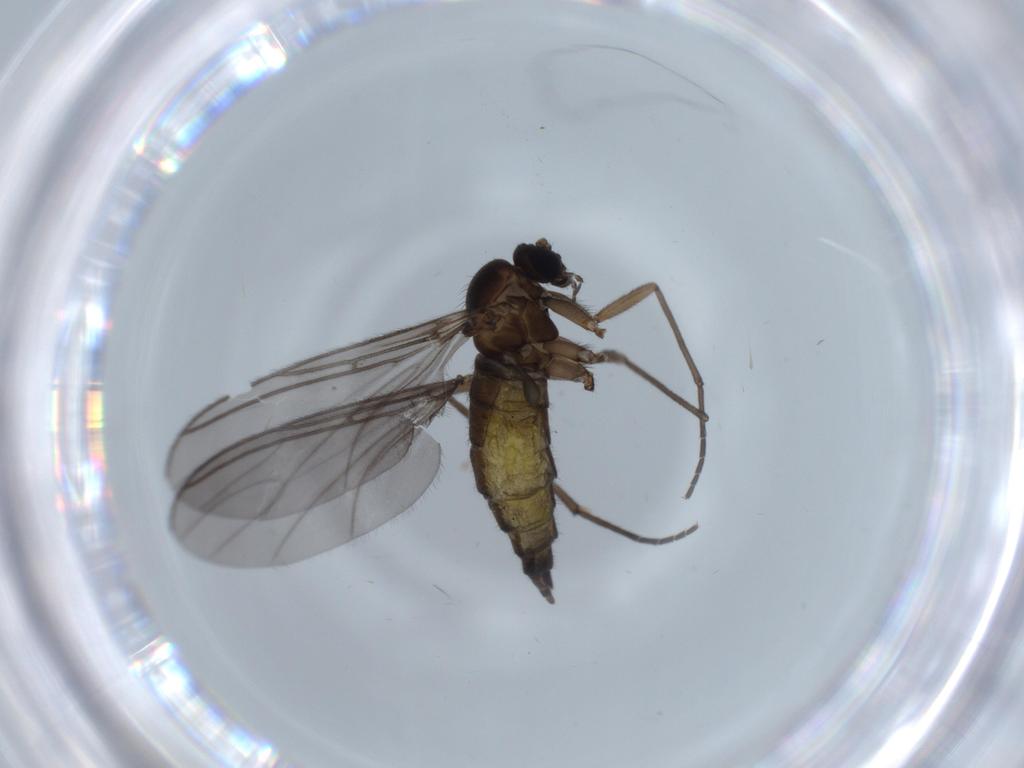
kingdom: Animalia
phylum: Arthropoda
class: Insecta
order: Diptera
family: Sciaridae
